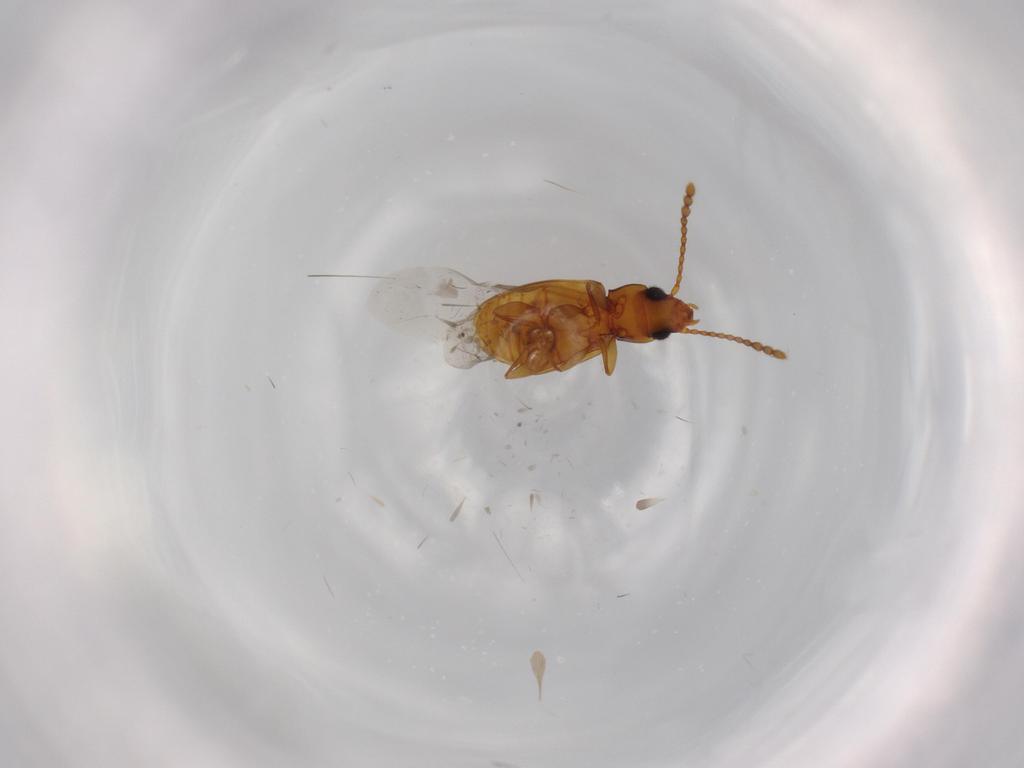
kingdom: Animalia
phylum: Arthropoda
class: Insecta
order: Coleoptera
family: Laemophloeidae
